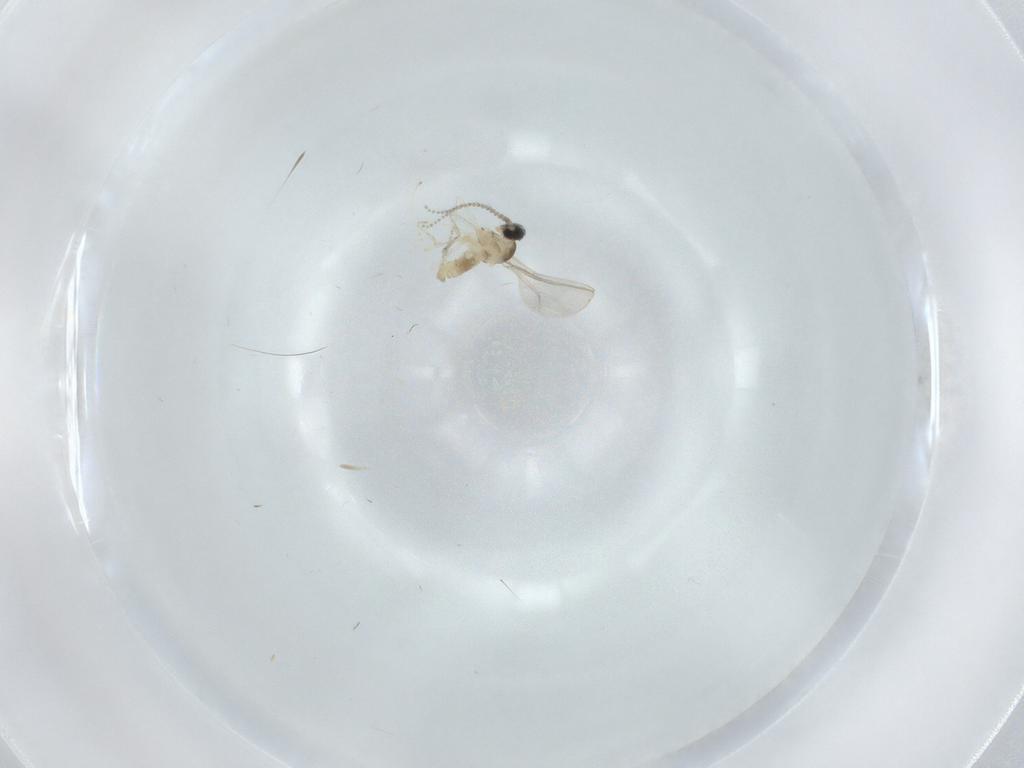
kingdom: Animalia
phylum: Arthropoda
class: Insecta
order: Diptera
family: Cecidomyiidae
